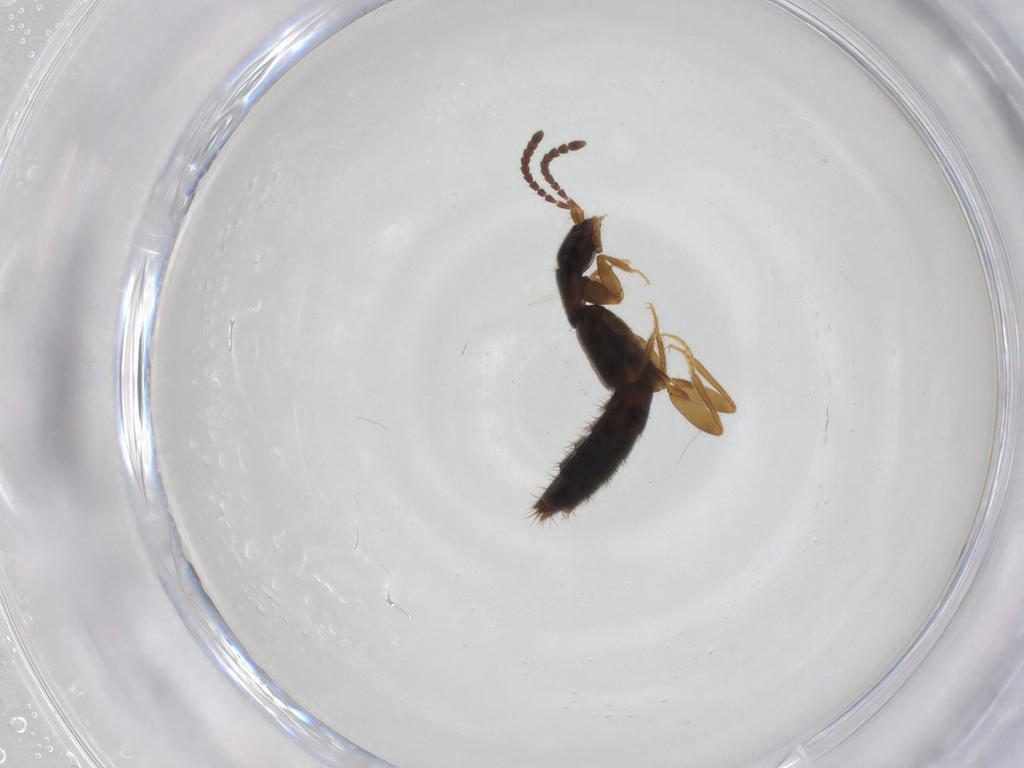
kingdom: Animalia
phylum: Arthropoda
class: Insecta
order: Coleoptera
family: Staphylinidae
